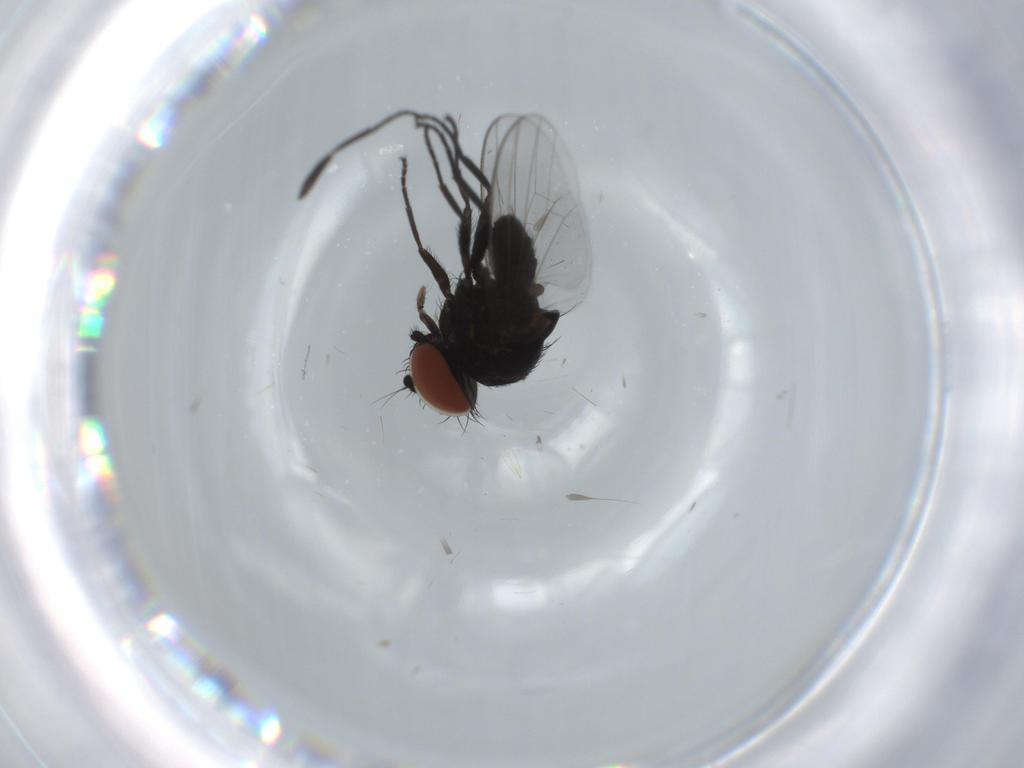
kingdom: Animalia
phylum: Arthropoda
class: Insecta
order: Diptera
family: Milichiidae
